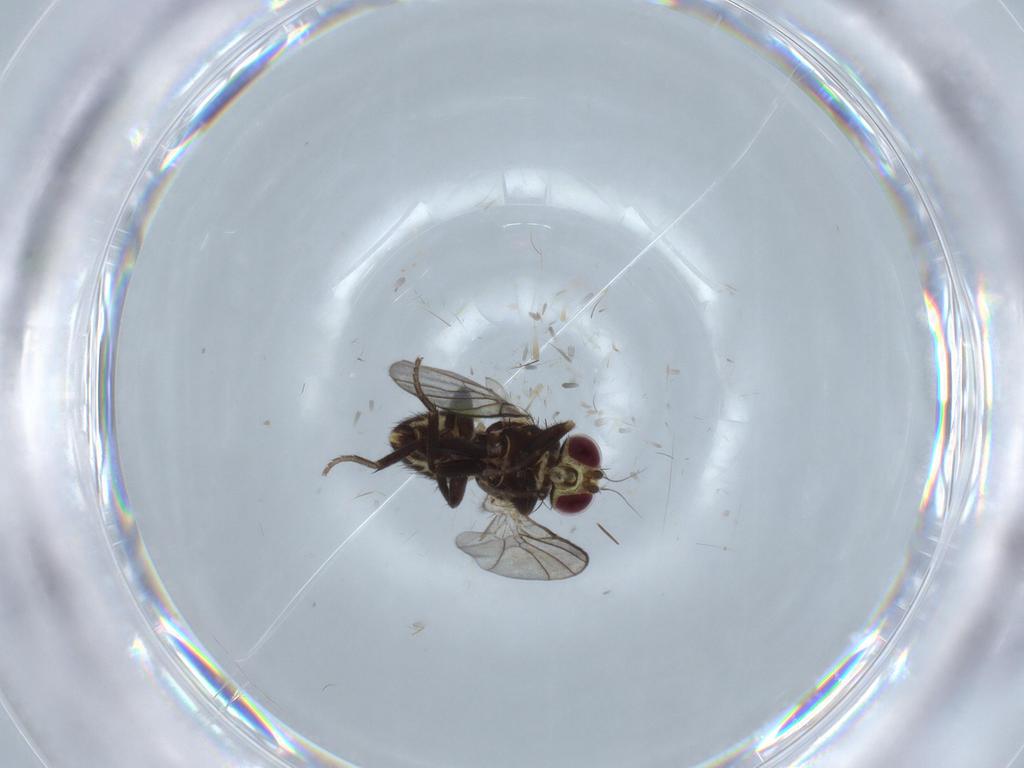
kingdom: Animalia
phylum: Arthropoda
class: Insecta
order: Diptera
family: Agromyzidae
